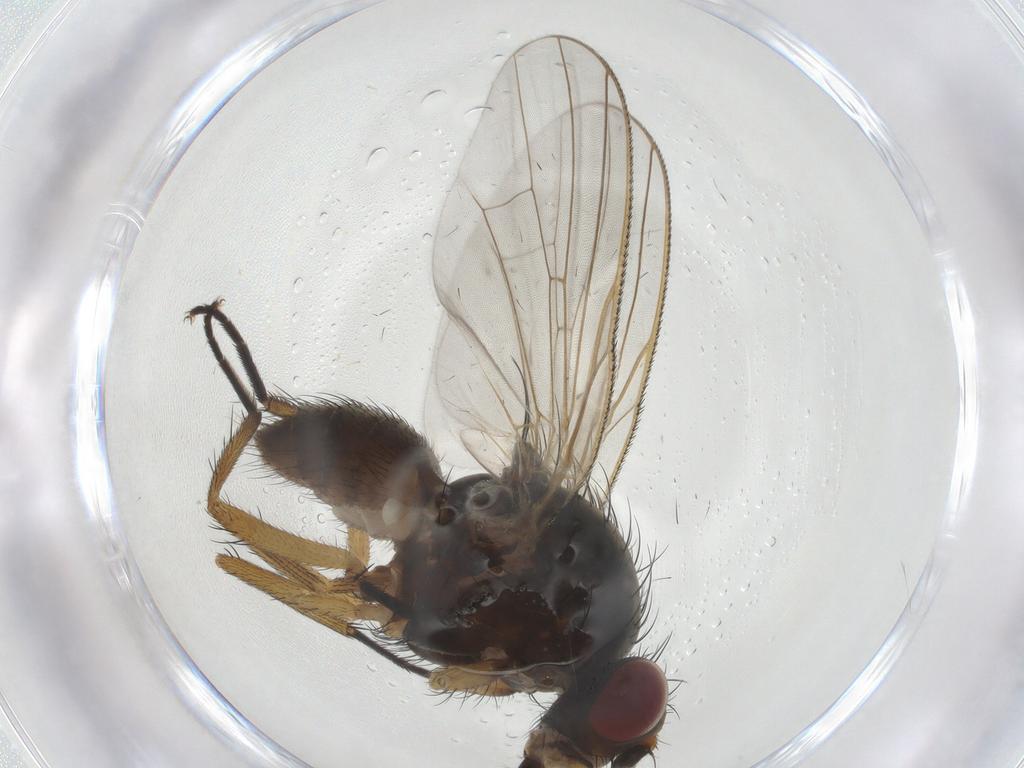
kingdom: Animalia
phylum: Arthropoda
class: Insecta
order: Diptera
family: Anthomyiidae
